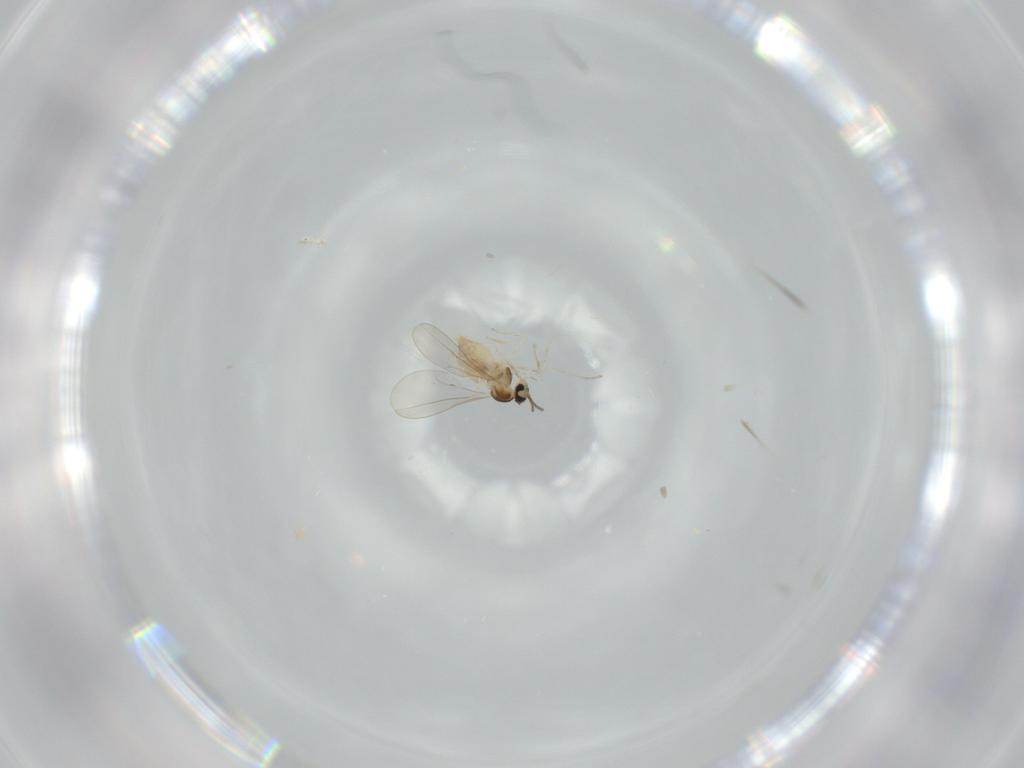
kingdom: Animalia
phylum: Arthropoda
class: Insecta
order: Diptera
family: Cecidomyiidae
